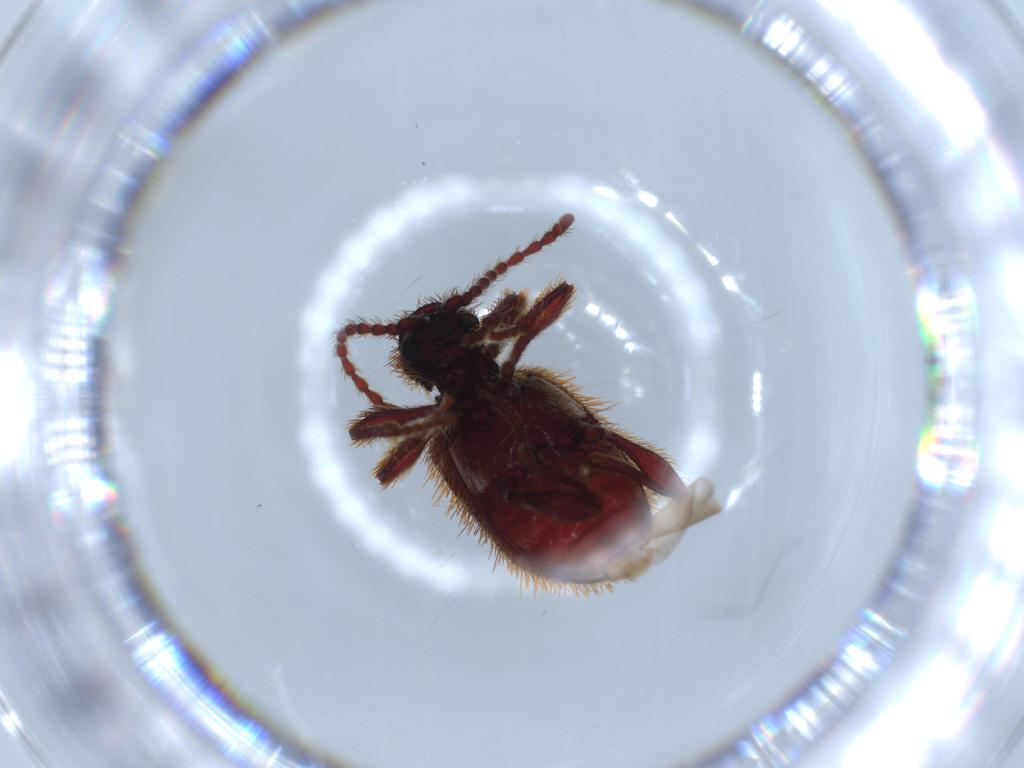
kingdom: Animalia
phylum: Arthropoda
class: Insecta
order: Coleoptera
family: Ptinidae
